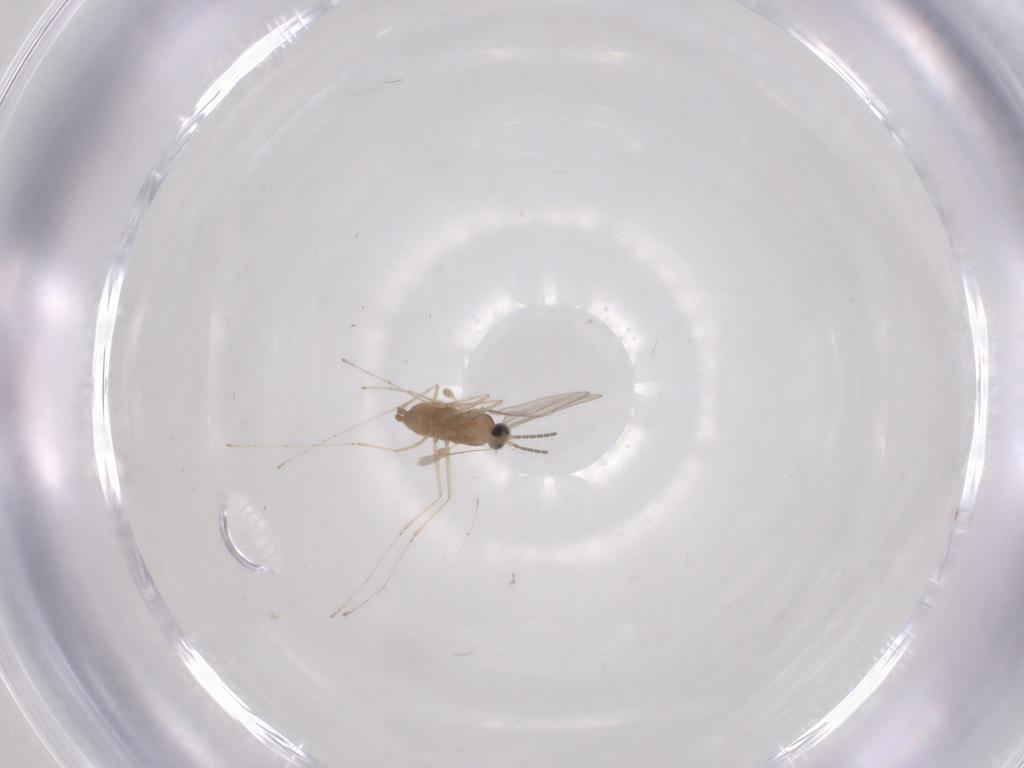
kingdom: Animalia
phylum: Arthropoda
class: Insecta
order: Diptera
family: Cecidomyiidae
